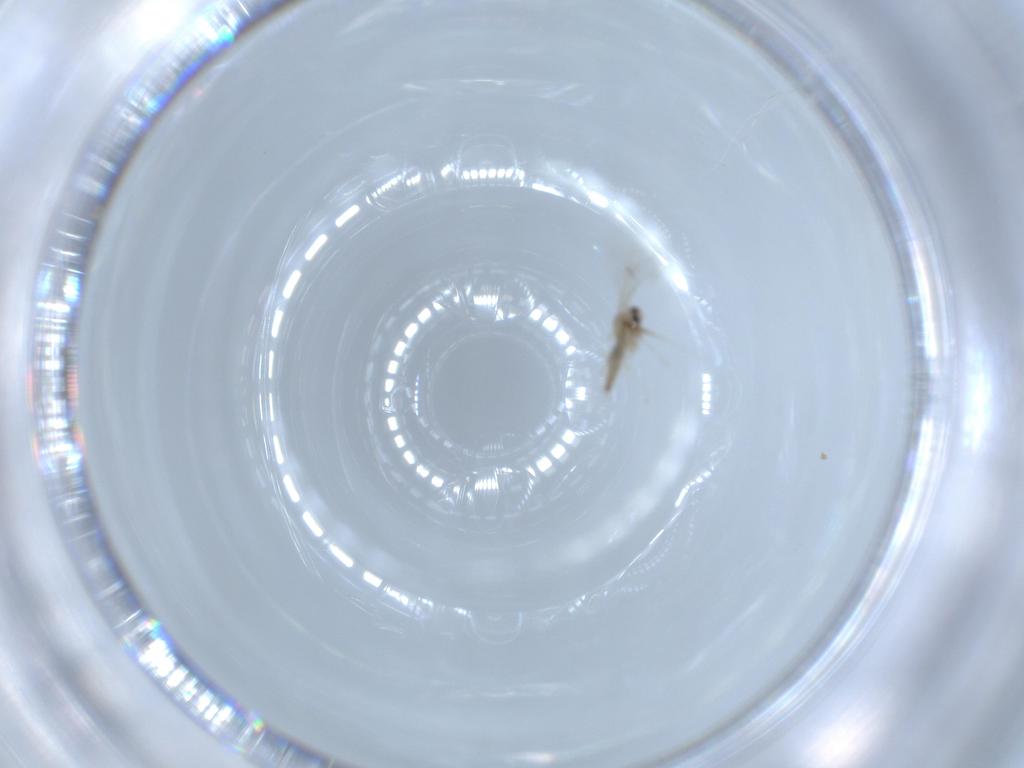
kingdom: Animalia
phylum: Arthropoda
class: Insecta
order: Diptera
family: Cecidomyiidae
